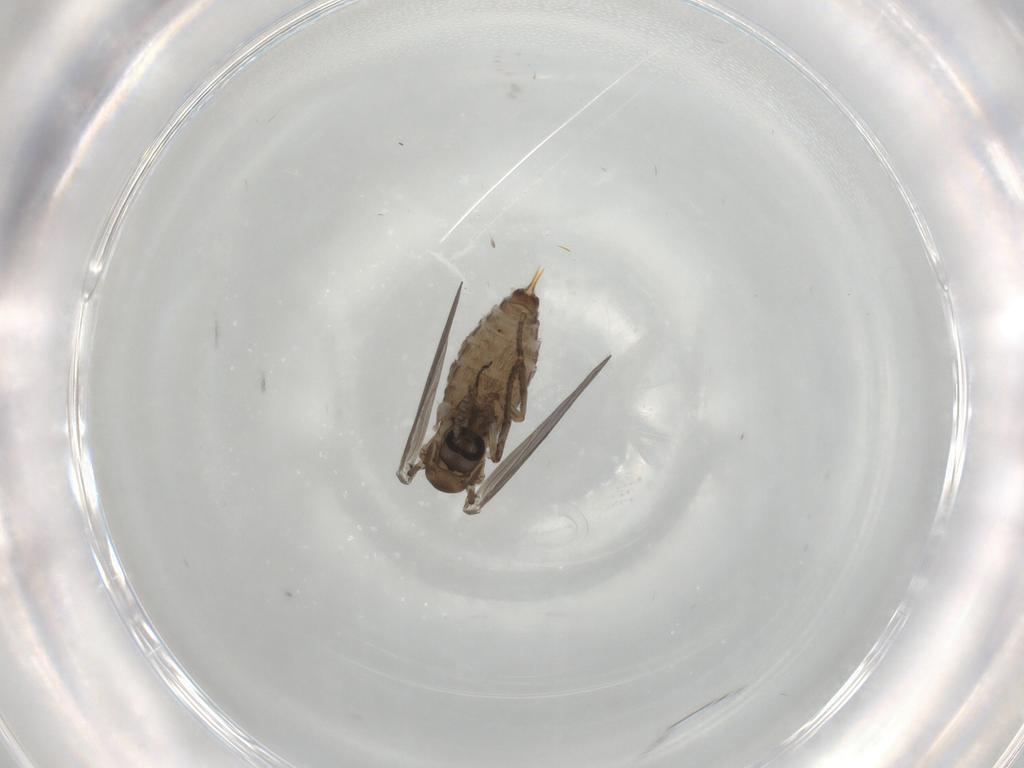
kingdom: Animalia
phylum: Arthropoda
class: Insecta
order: Diptera
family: Psychodidae
